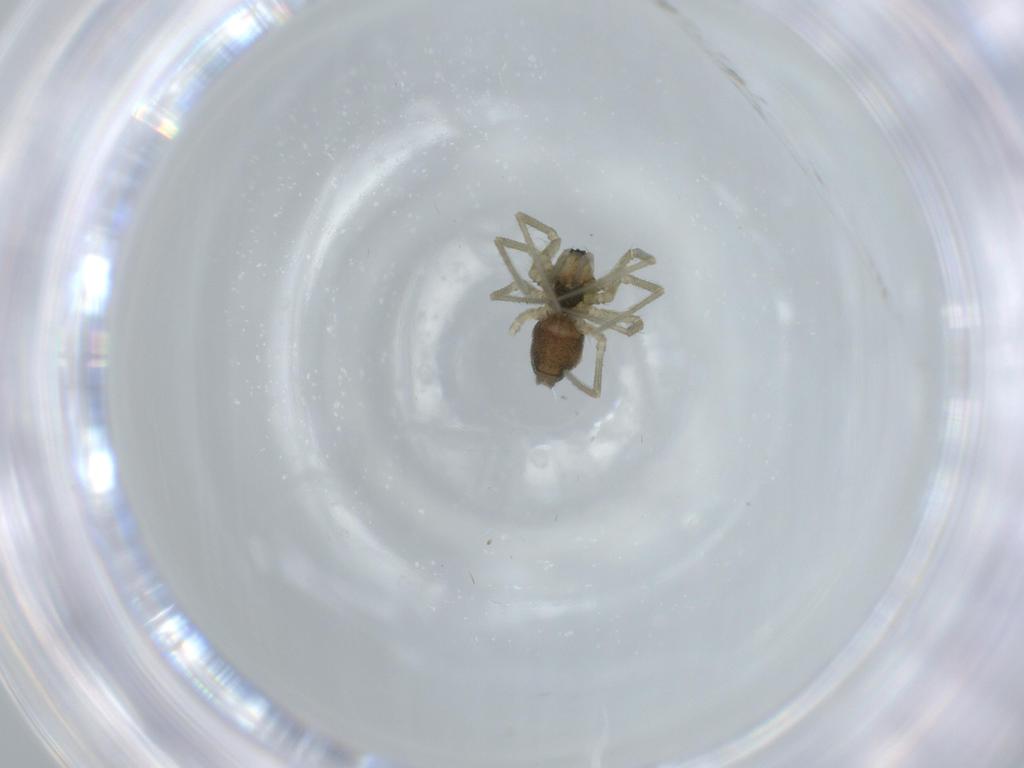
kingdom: Animalia
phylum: Arthropoda
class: Arachnida
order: Araneae
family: Linyphiidae
